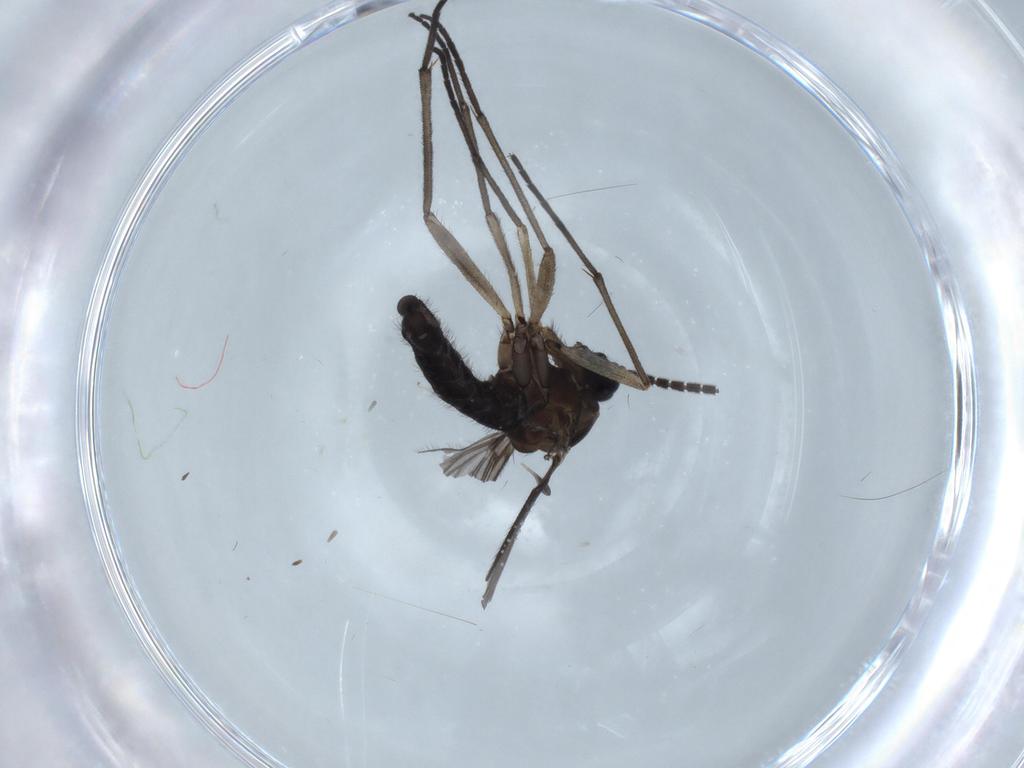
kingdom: Animalia
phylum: Arthropoda
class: Insecta
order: Diptera
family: Sciaridae
